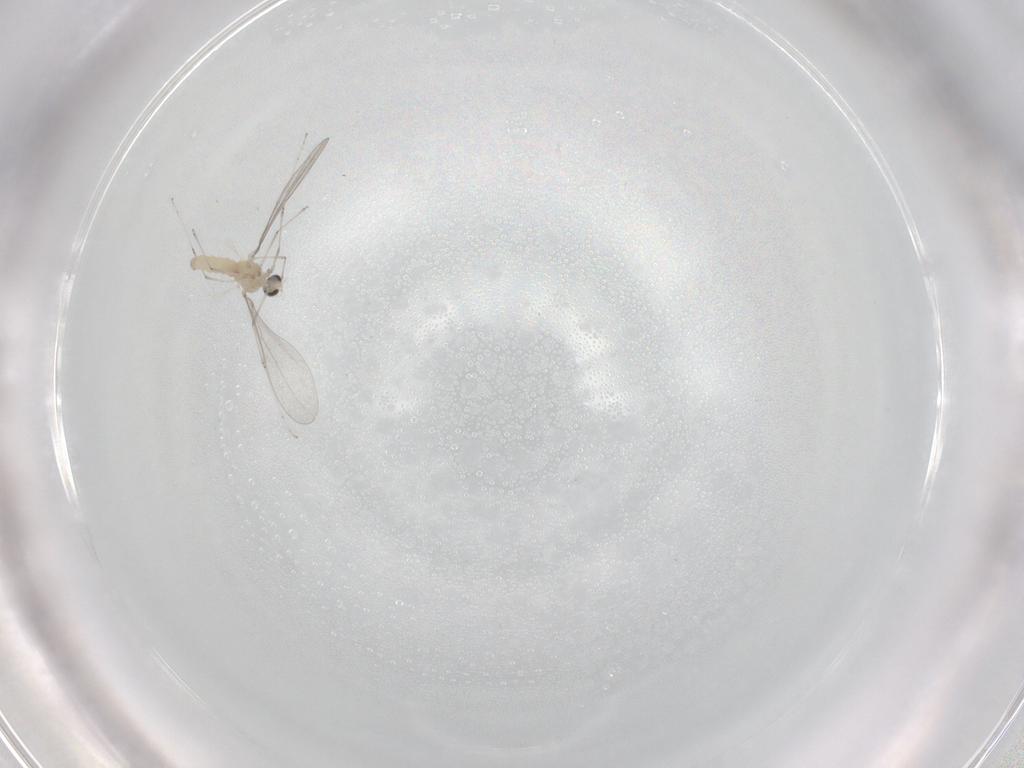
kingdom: Animalia
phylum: Arthropoda
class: Insecta
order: Diptera
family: Cecidomyiidae
